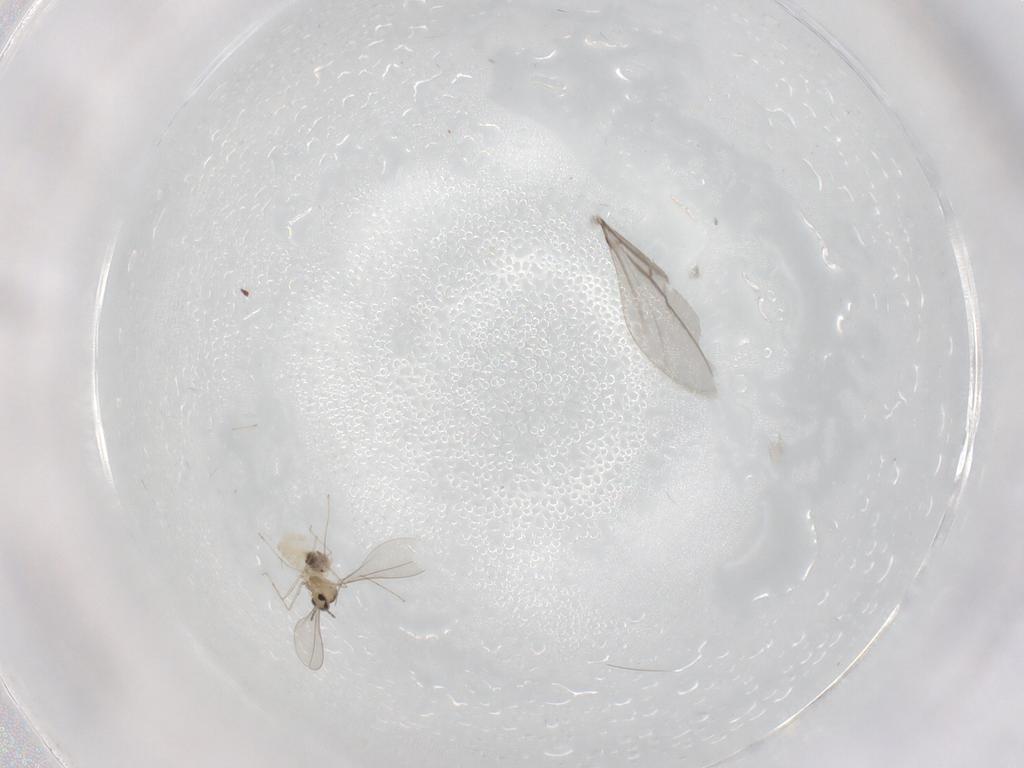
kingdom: Animalia
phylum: Arthropoda
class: Insecta
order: Diptera
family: Cecidomyiidae
